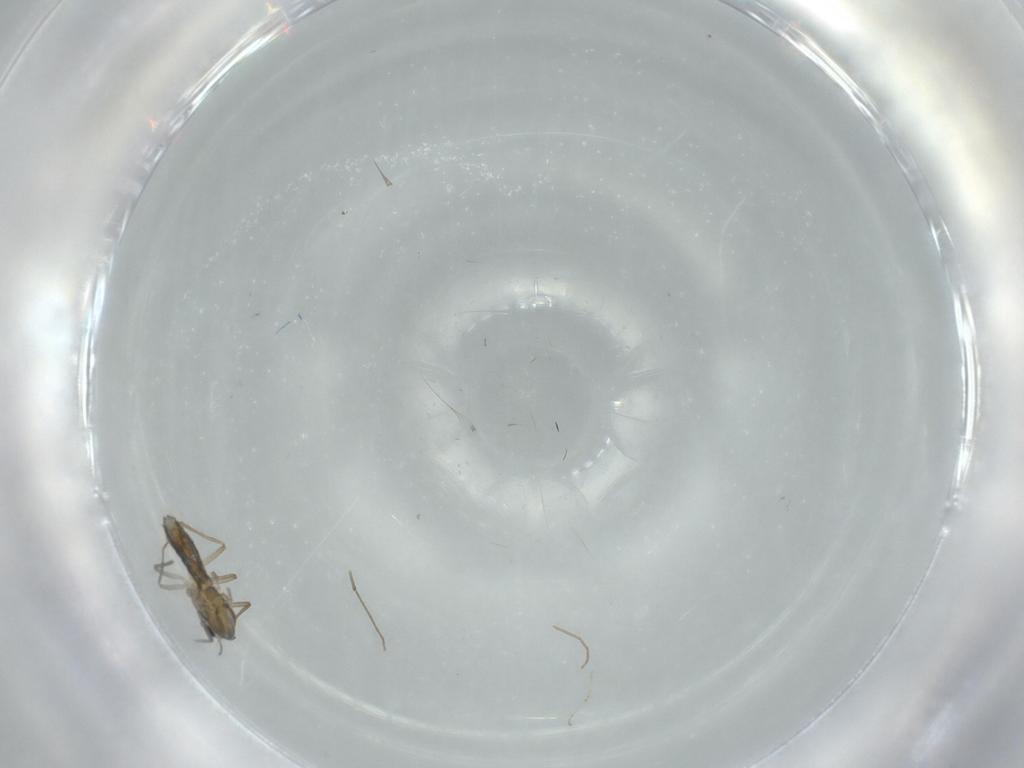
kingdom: Animalia
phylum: Arthropoda
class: Insecta
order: Diptera
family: Chironomidae
